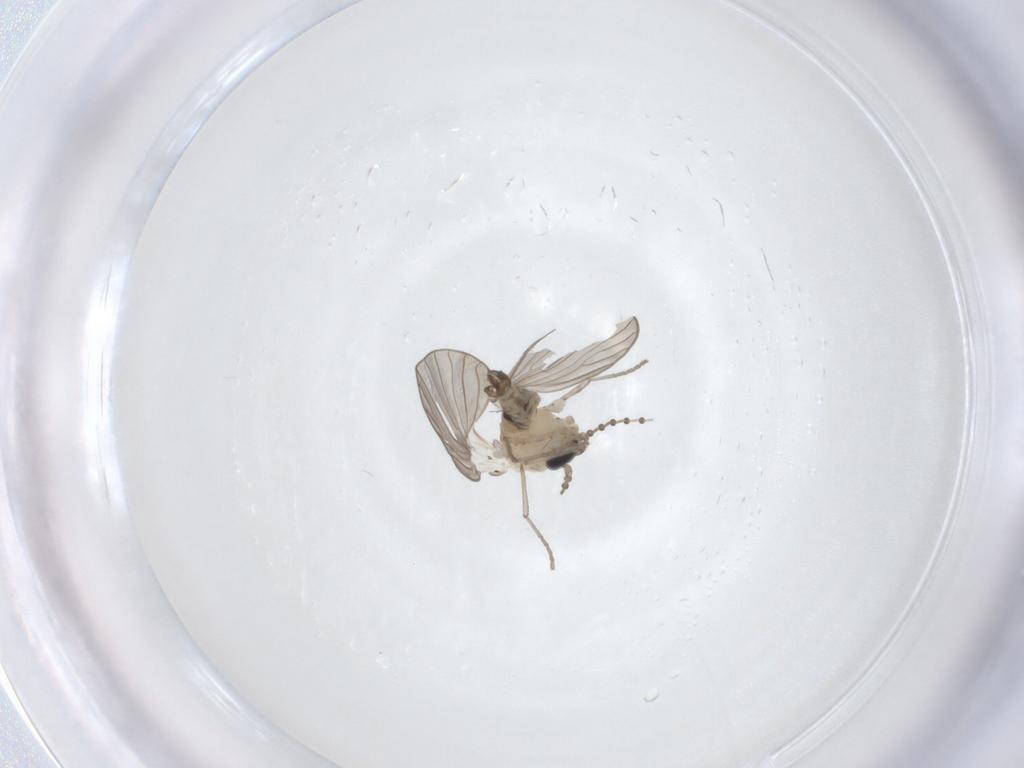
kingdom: Animalia
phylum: Arthropoda
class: Insecta
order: Diptera
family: Psychodidae
